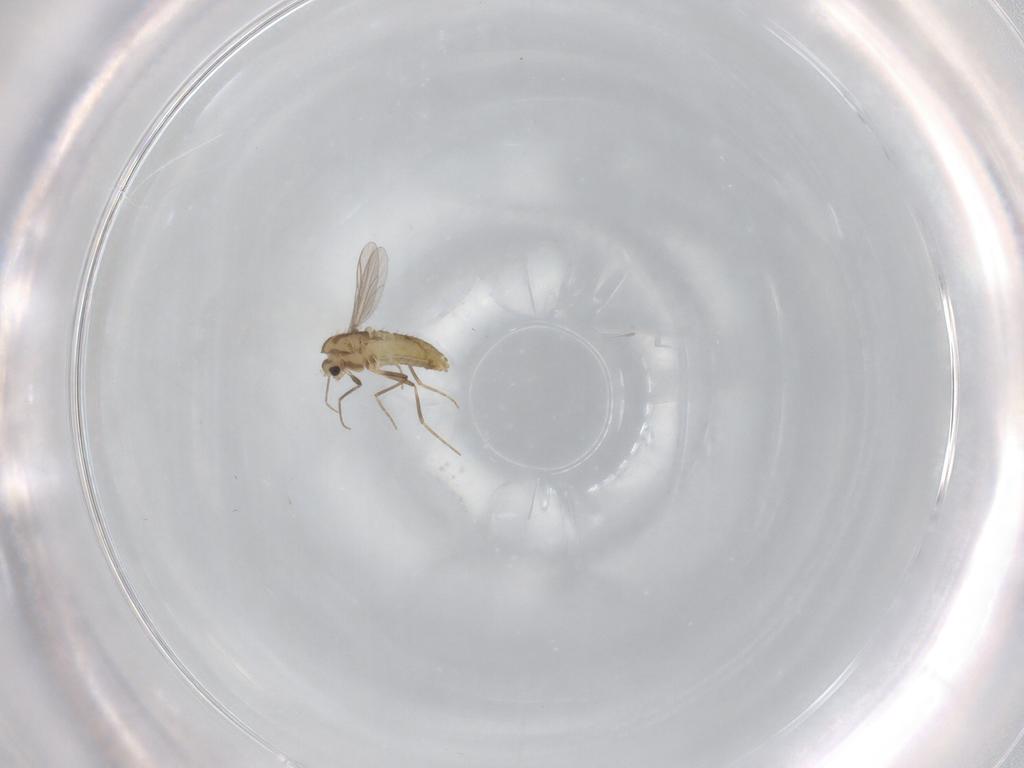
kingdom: Animalia
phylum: Arthropoda
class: Insecta
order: Diptera
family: Chironomidae
